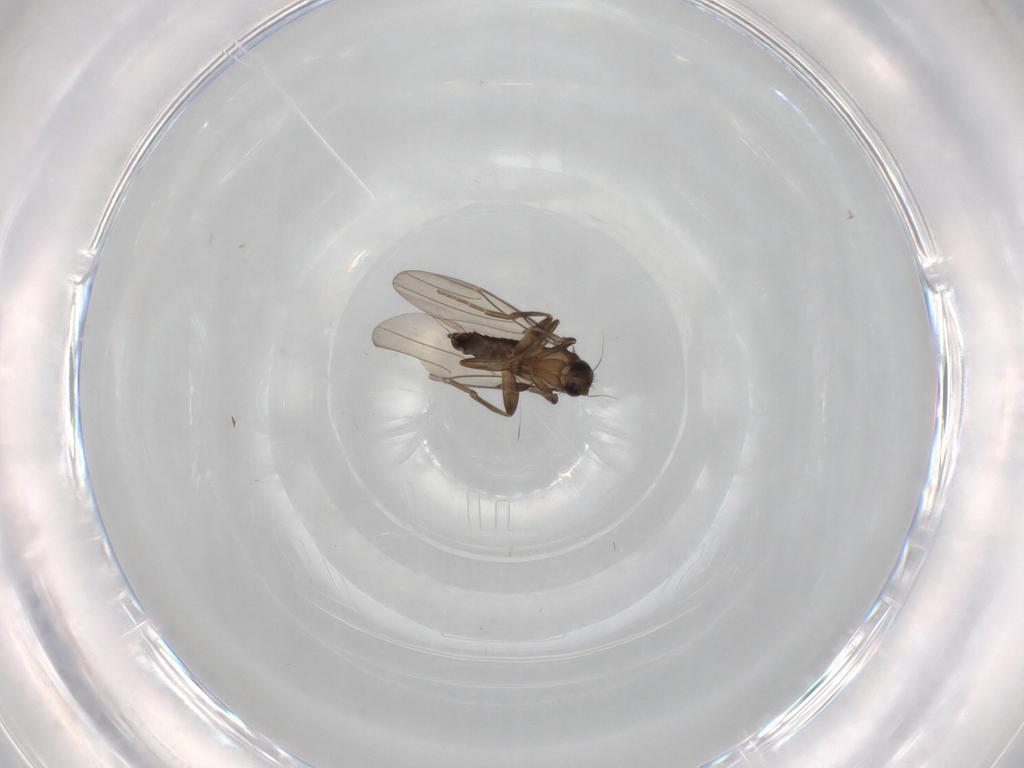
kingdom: Animalia
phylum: Arthropoda
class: Insecta
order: Diptera
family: Phoridae
